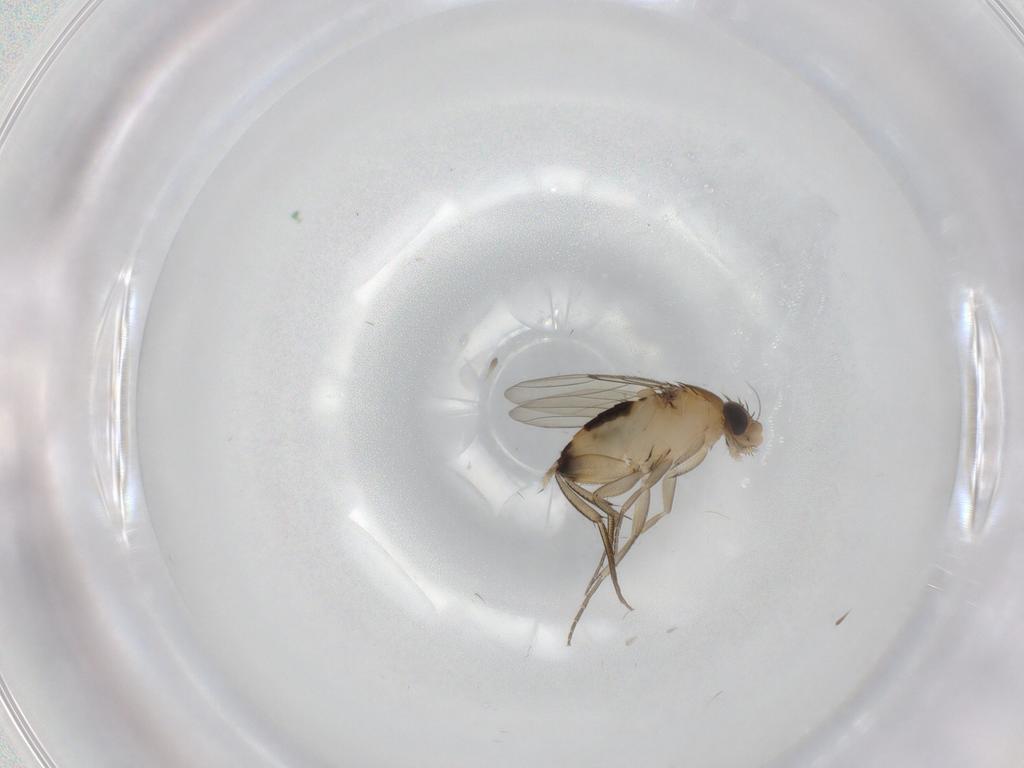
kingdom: Animalia
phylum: Arthropoda
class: Insecta
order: Diptera
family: Phoridae
